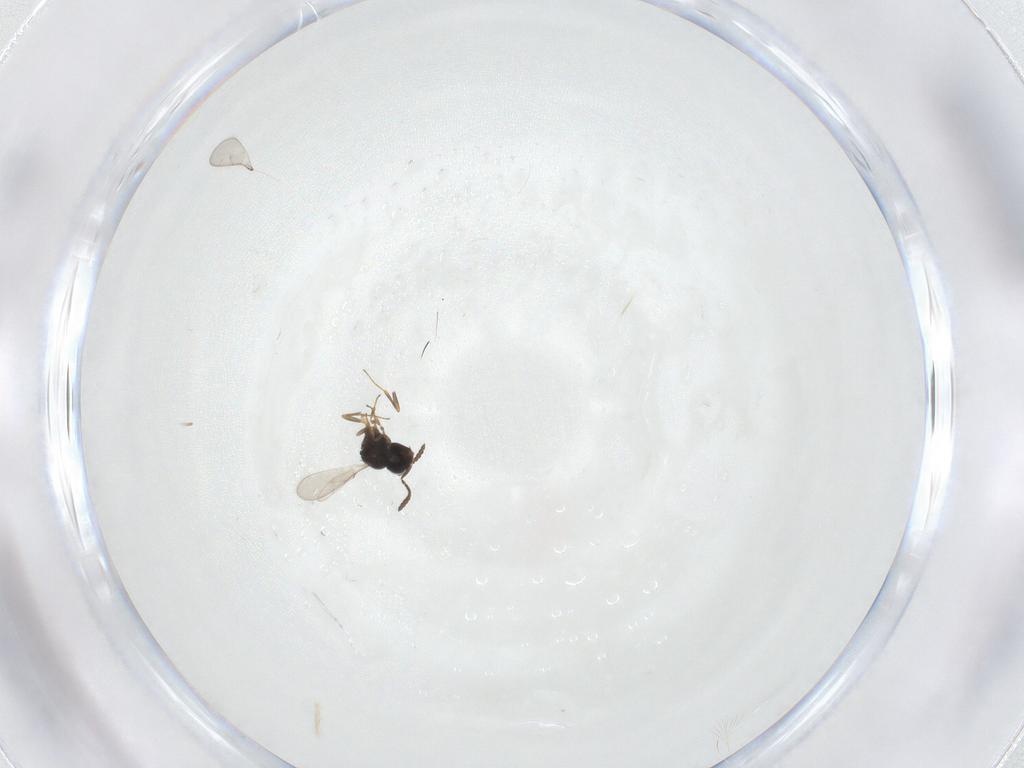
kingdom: Animalia
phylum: Arthropoda
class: Insecta
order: Hymenoptera
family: Scelionidae
